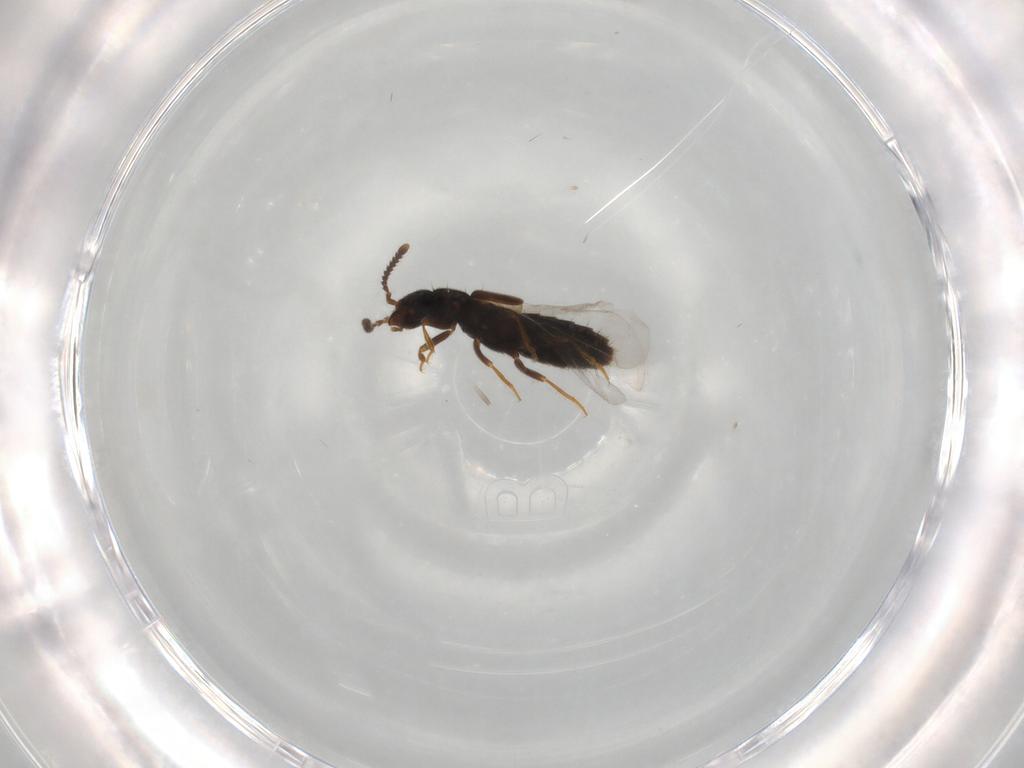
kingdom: Animalia
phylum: Arthropoda
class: Insecta
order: Coleoptera
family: Staphylinidae
